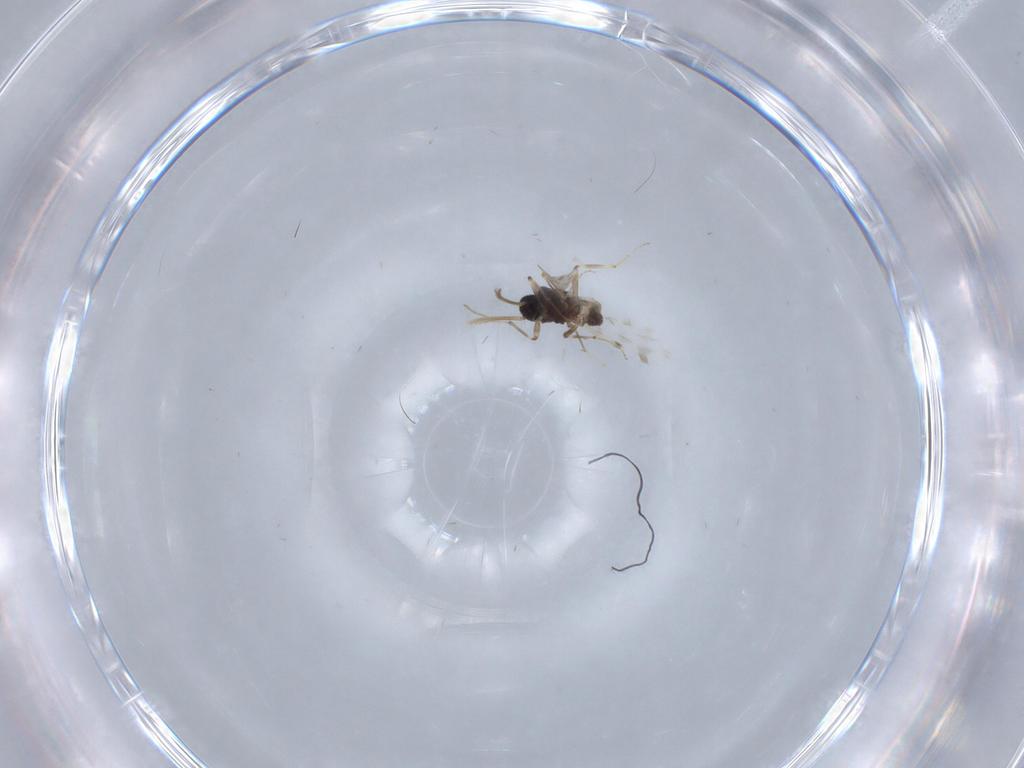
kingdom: Animalia
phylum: Arthropoda
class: Insecta
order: Diptera
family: Ceratopogonidae
